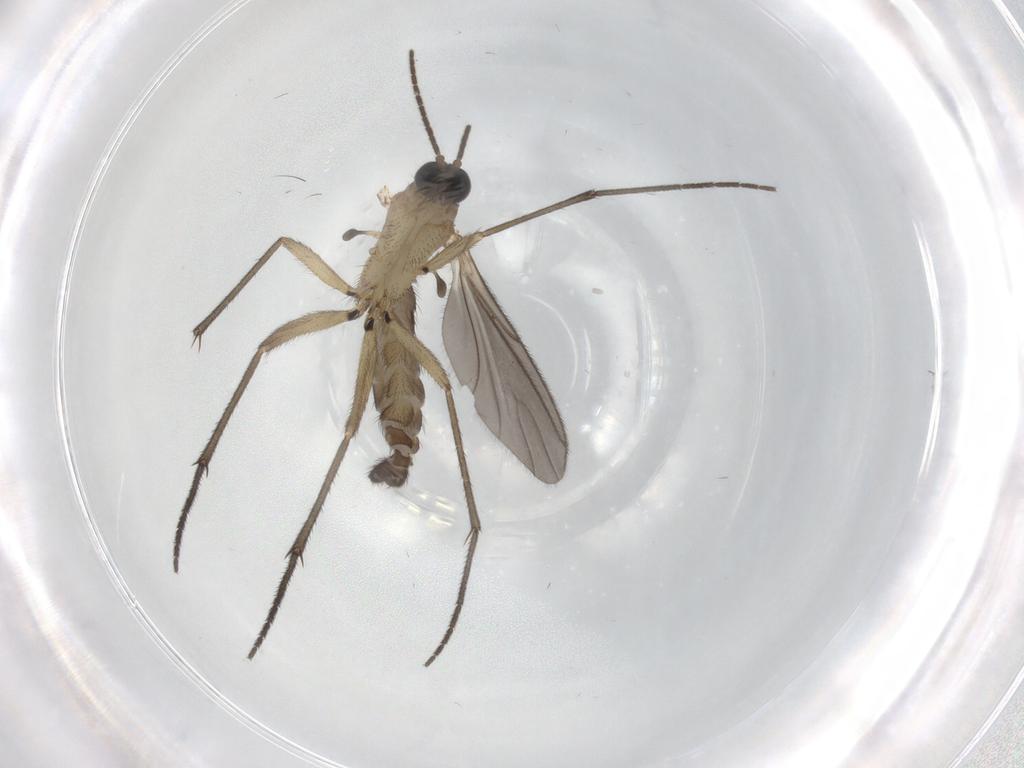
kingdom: Animalia
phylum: Arthropoda
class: Insecta
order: Diptera
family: Sciaridae
